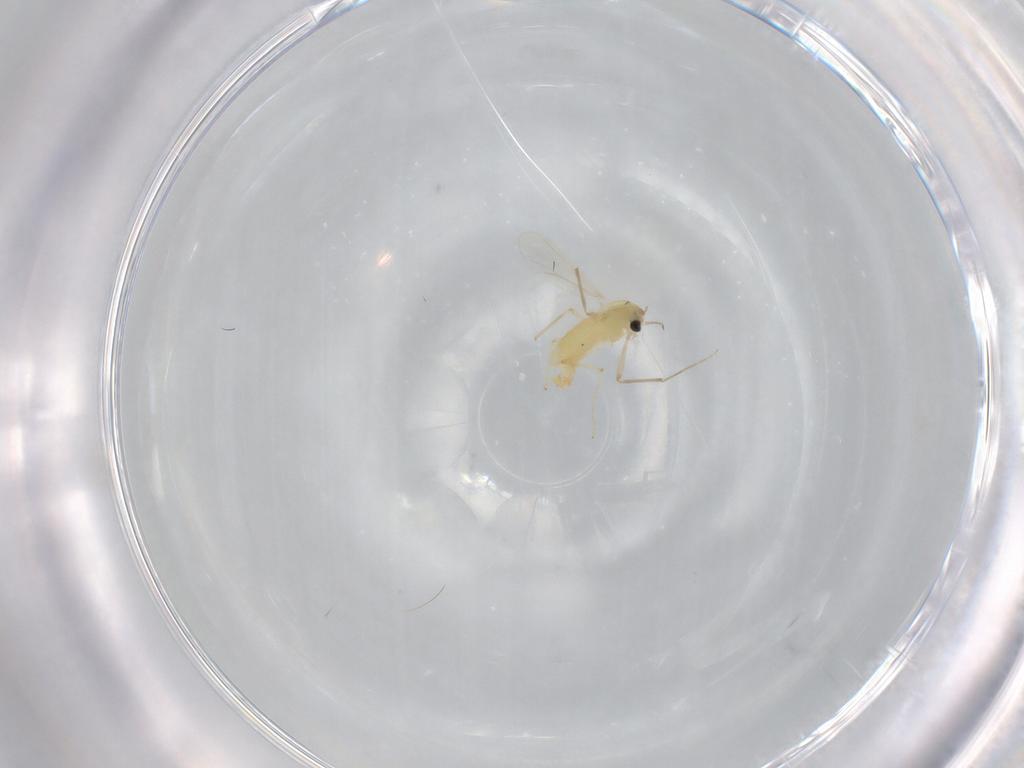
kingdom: Animalia
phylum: Arthropoda
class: Insecta
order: Diptera
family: Chironomidae
